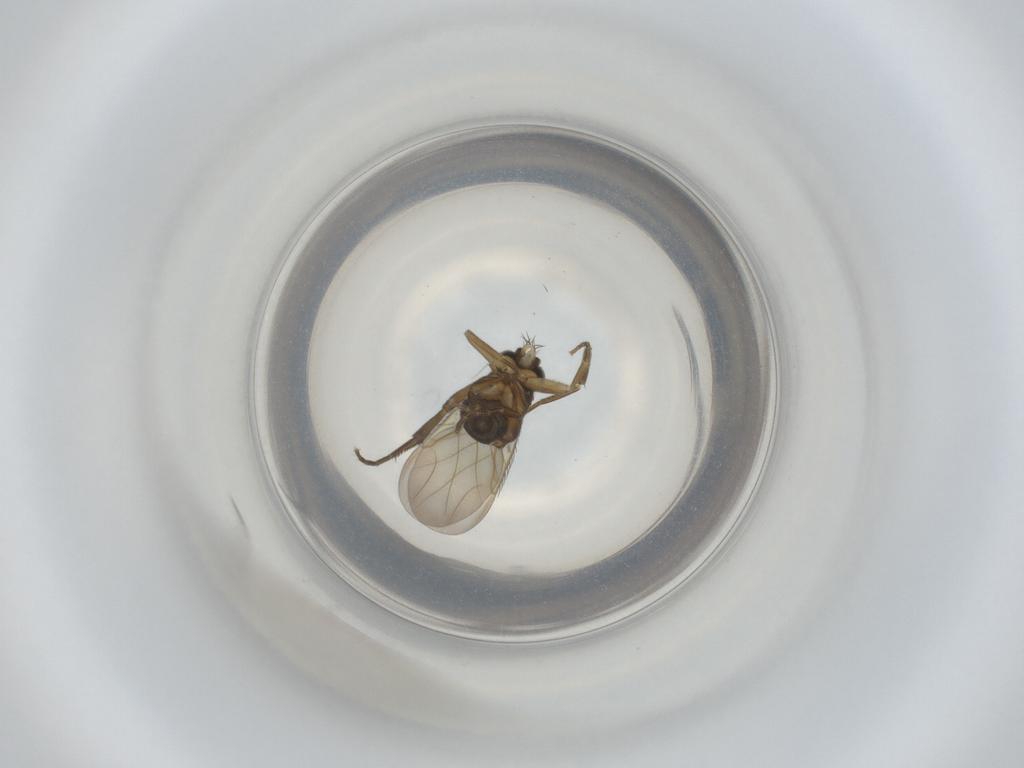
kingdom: Animalia
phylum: Arthropoda
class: Insecta
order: Diptera
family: Phoridae
